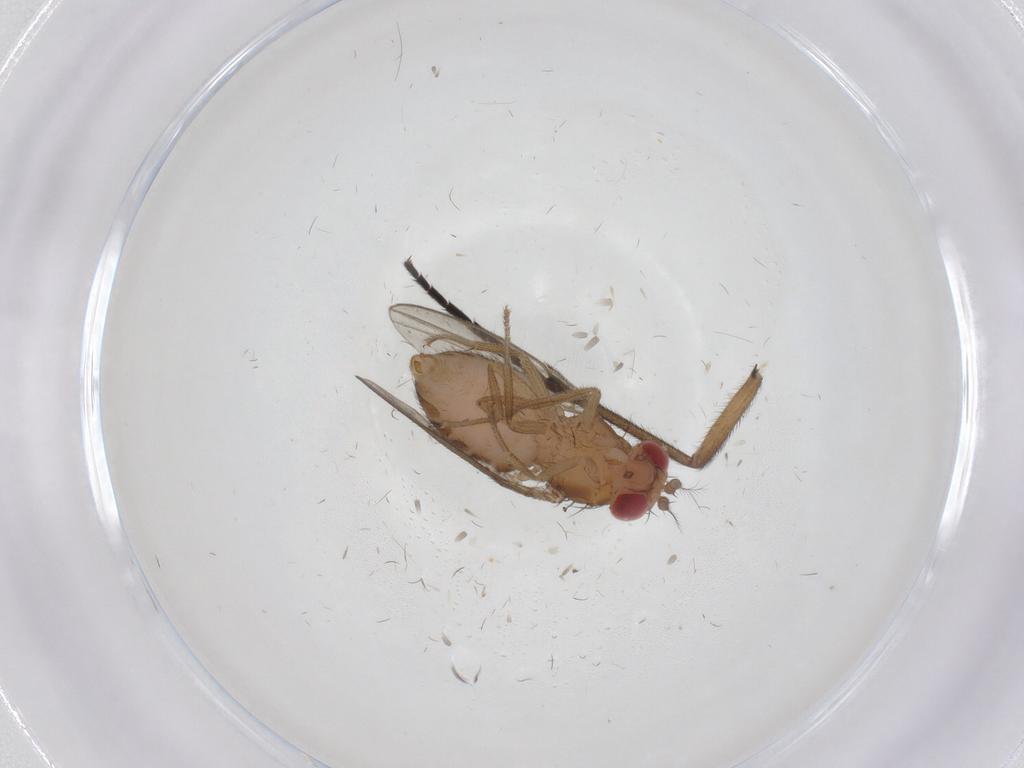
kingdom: Animalia
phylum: Arthropoda
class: Insecta
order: Diptera
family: Drosophilidae
